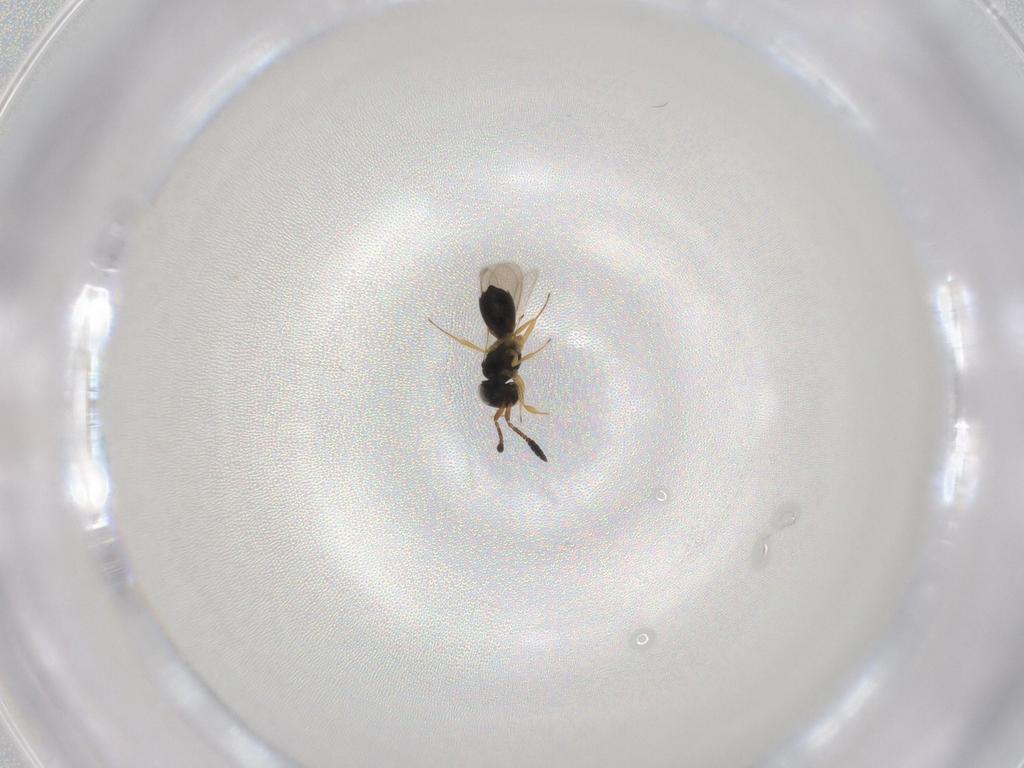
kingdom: Animalia
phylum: Arthropoda
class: Insecta
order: Hymenoptera
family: Scelionidae
